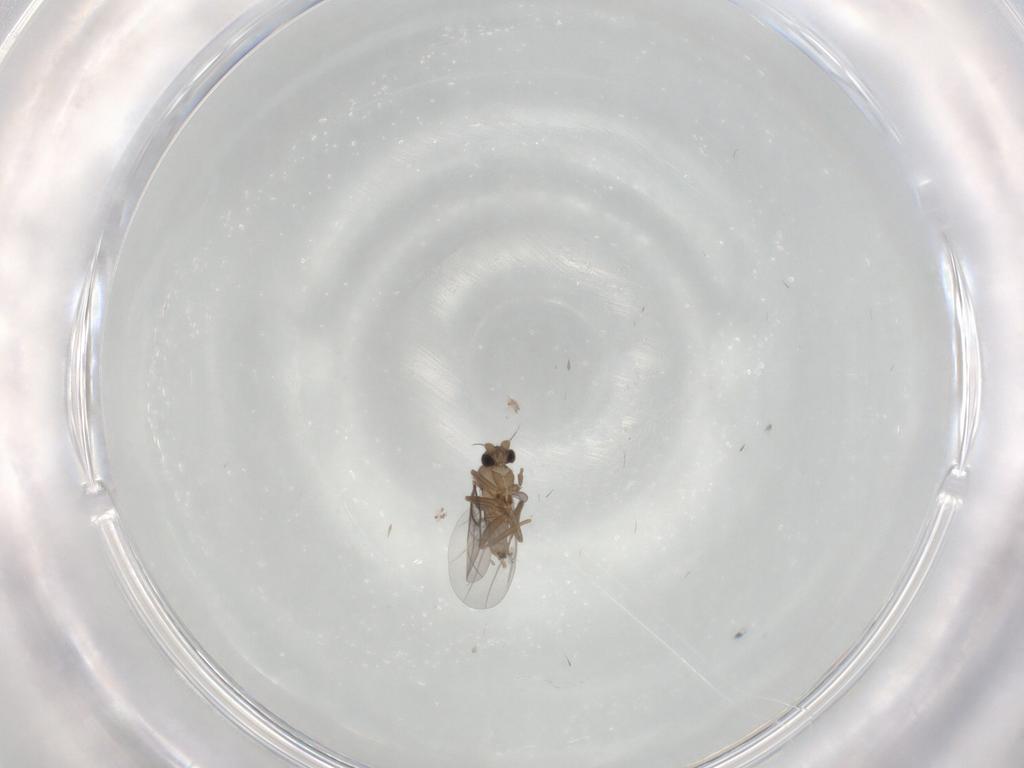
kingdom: Animalia
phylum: Arthropoda
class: Insecta
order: Diptera
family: Psychodidae
